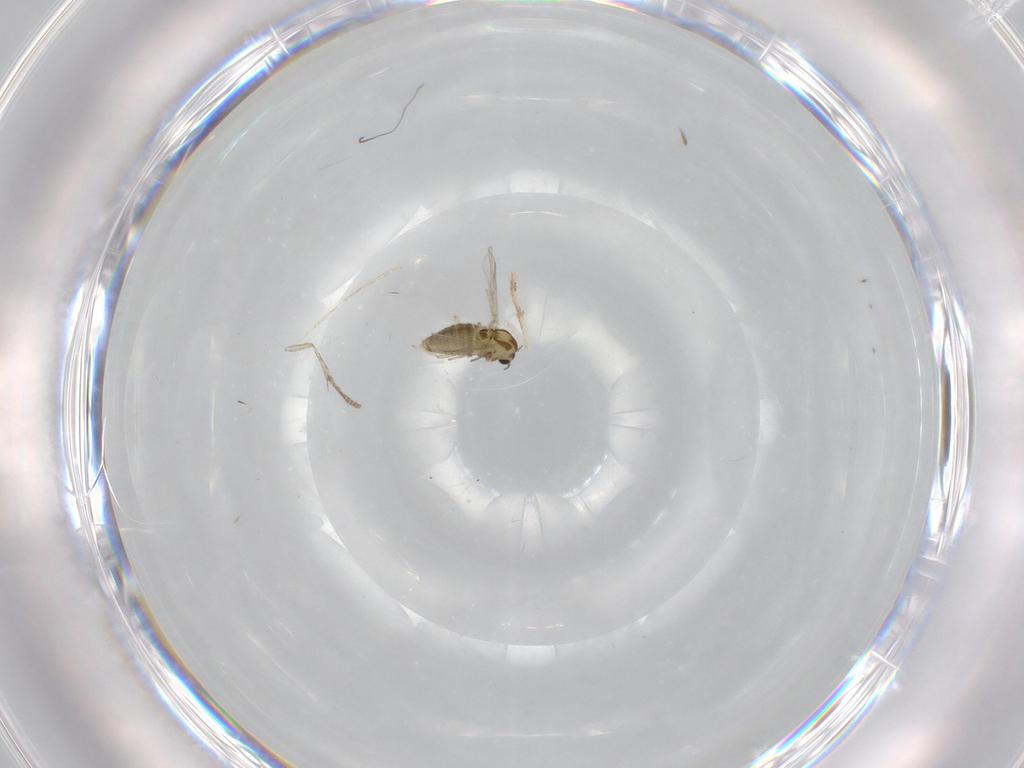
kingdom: Animalia
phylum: Arthropoda
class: Insecta
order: Diptera
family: Chironomidae
